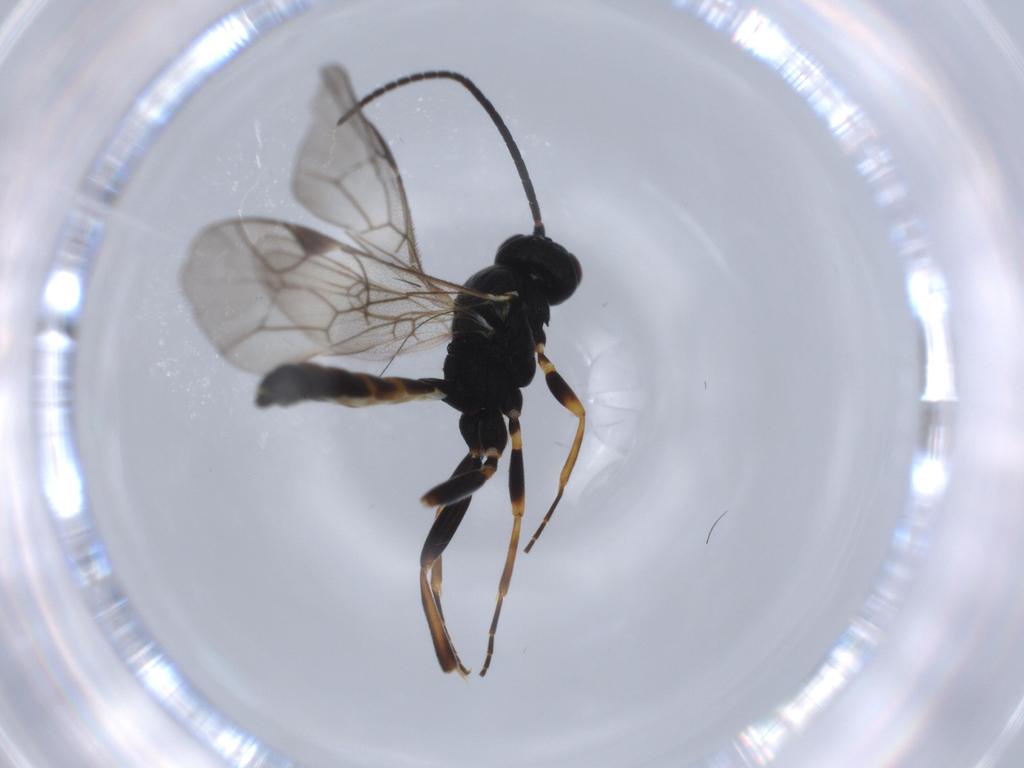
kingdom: Animalia
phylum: Arthropoda
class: Insecta
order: Hymenoptera
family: Ichneumonidae
